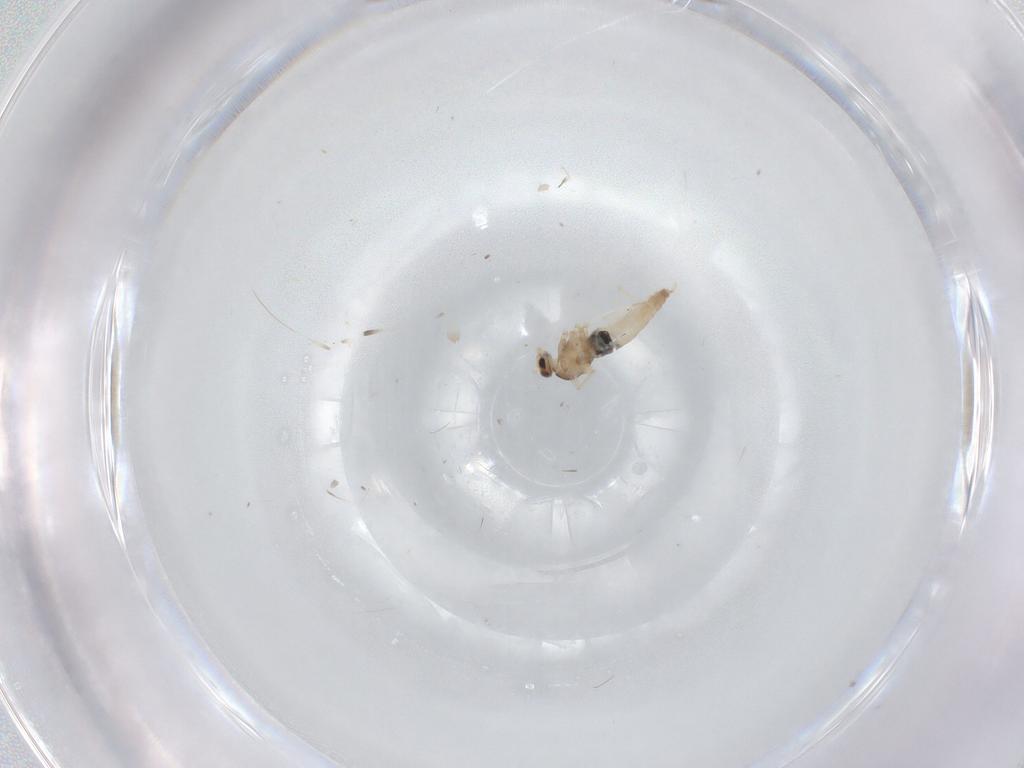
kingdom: Animalia
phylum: Arthropoda
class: Insecta
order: Diptera
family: Cecidomyiidae
